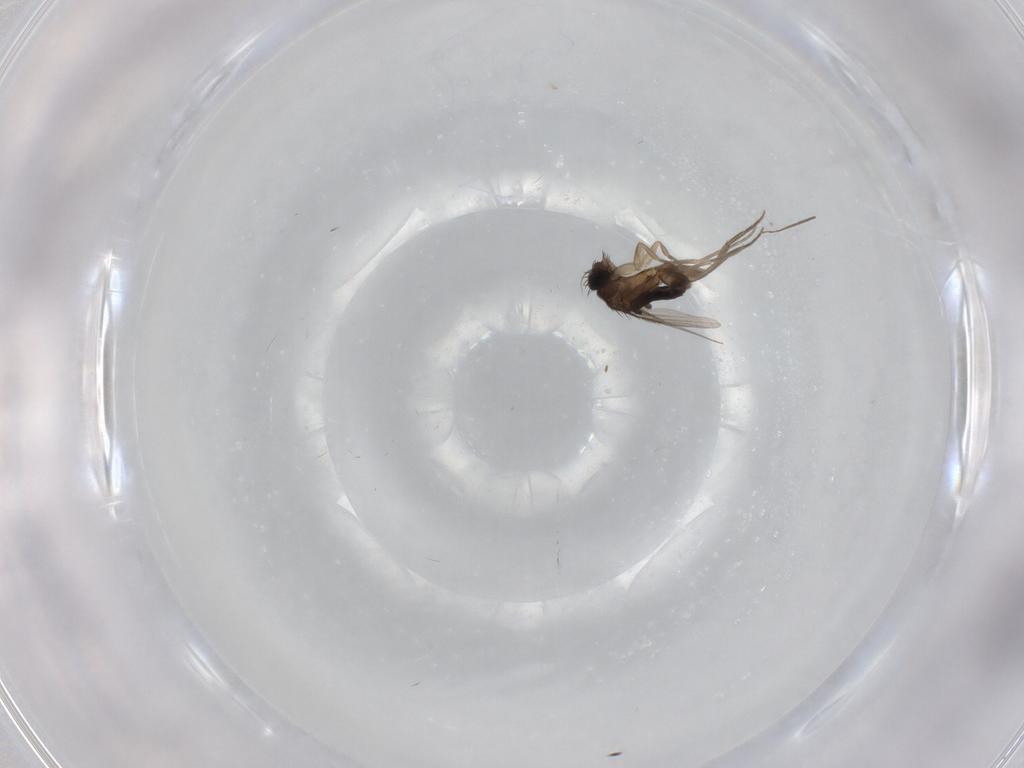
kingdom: Animalia
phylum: Arthropoda
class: Insecta
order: Diptera
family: Phoridae
